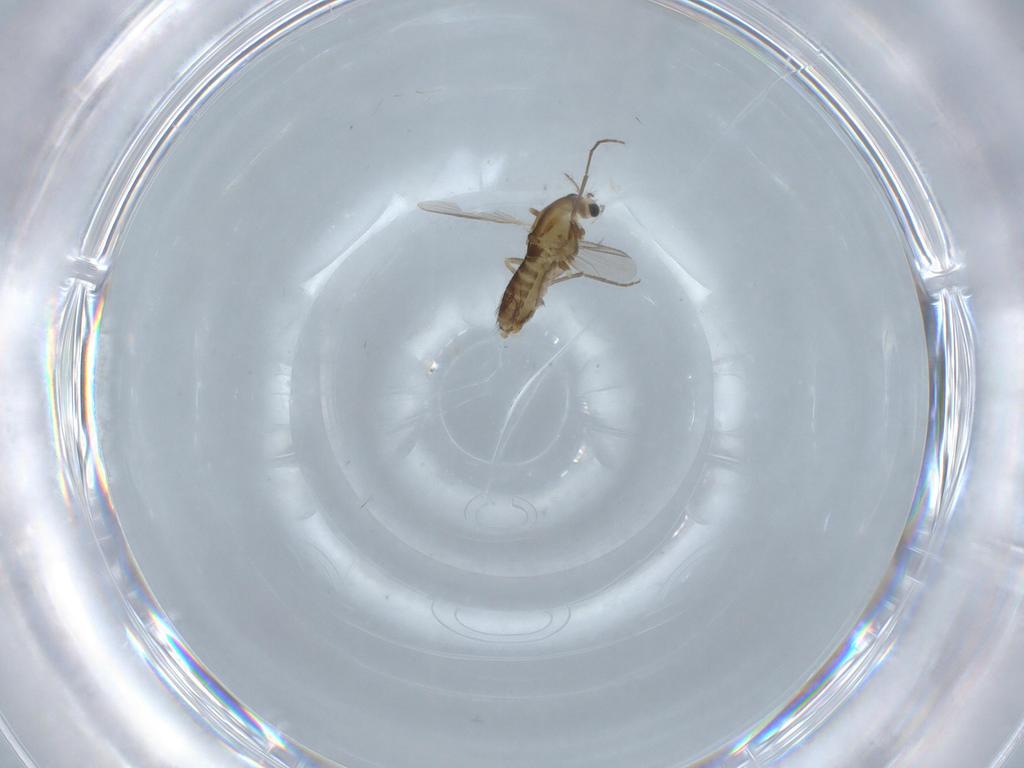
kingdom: Animalia
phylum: Arthropoda
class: Insecta
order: Diptera
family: Chironomidae
